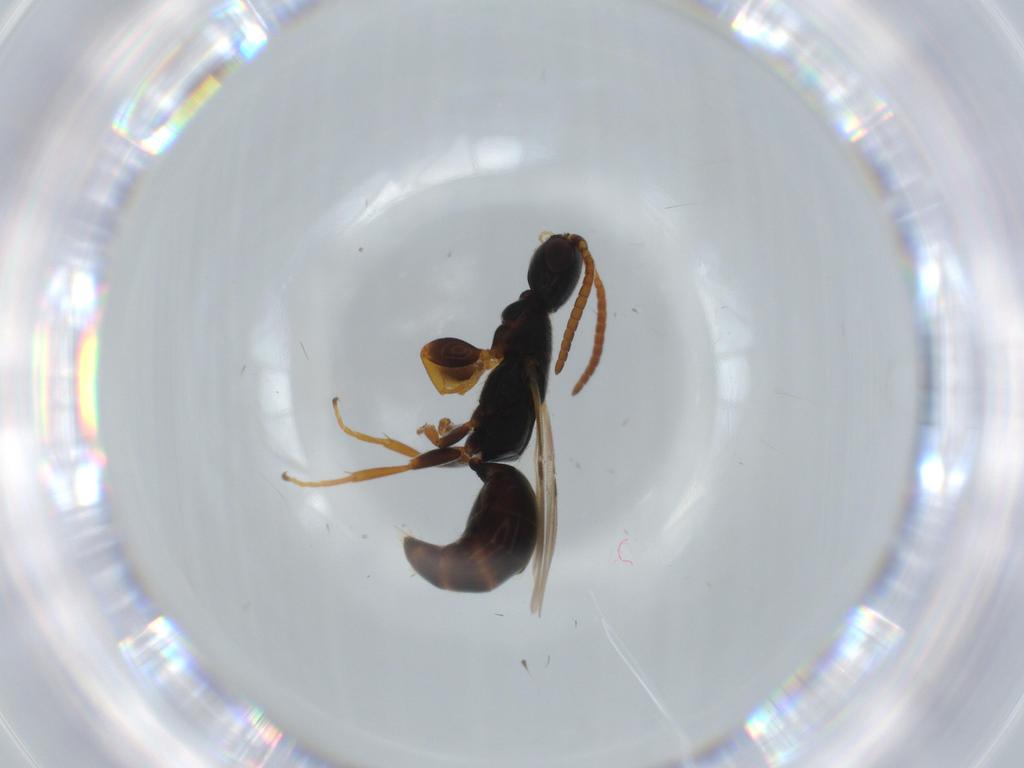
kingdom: Animalia
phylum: Arthropoda
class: Insecta
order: Hymenoptera
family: Bethylidae
